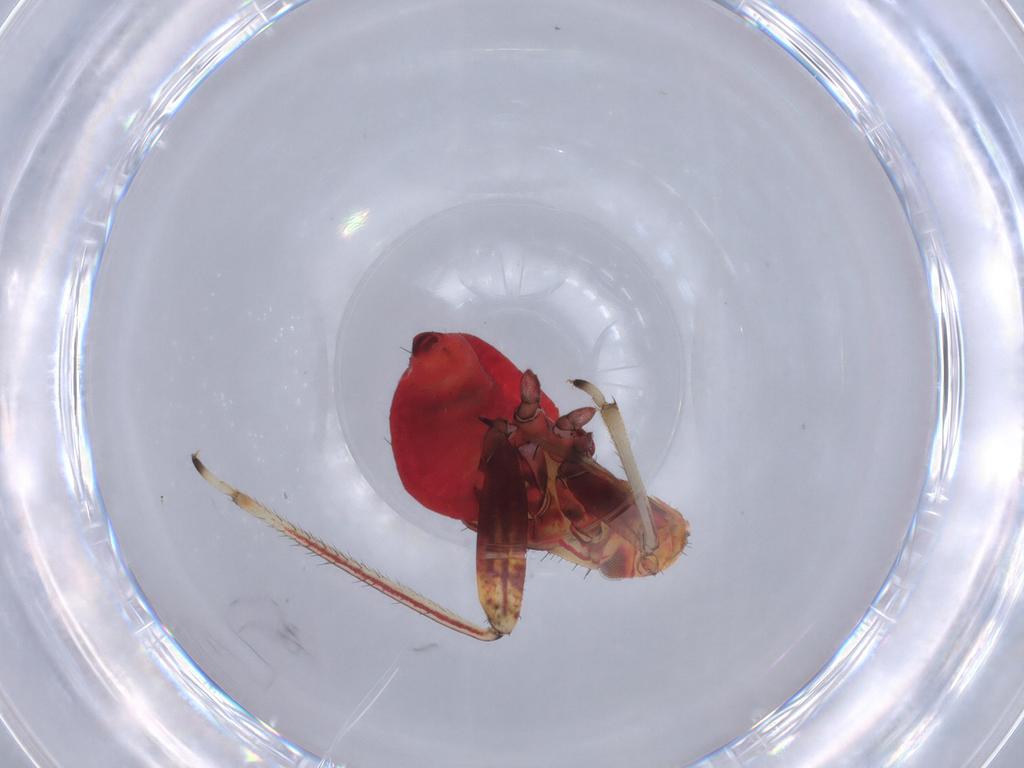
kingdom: Animalia
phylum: Arthropoda
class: Insecta
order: Hemiptera
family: Miridae
